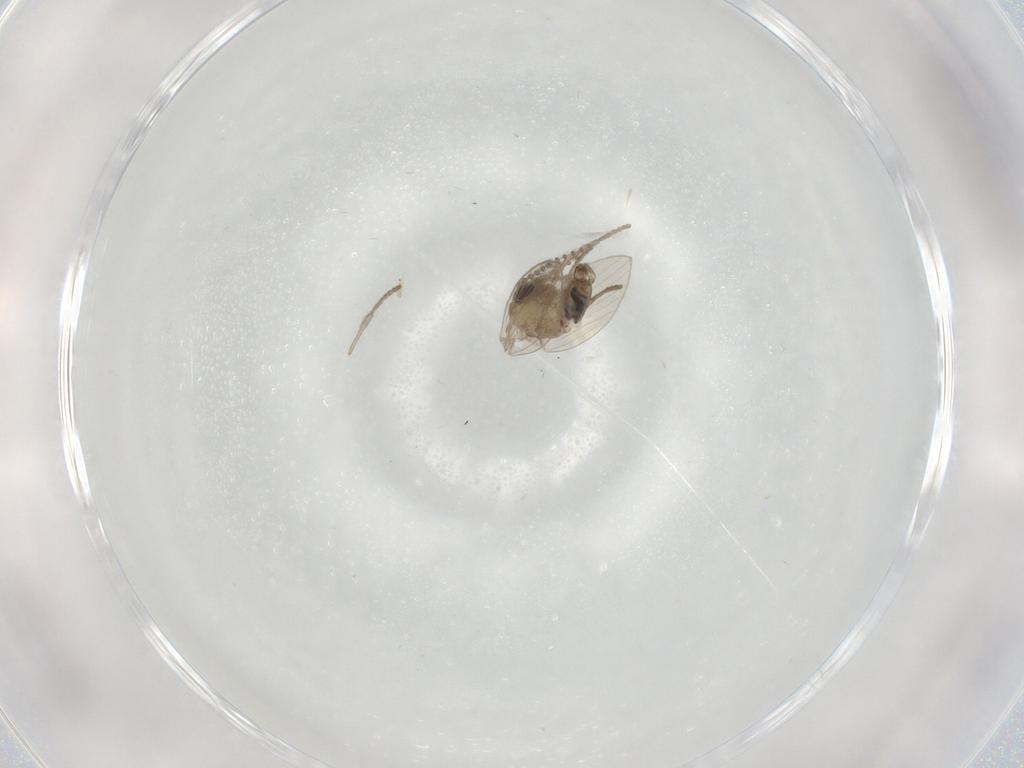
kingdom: Animalia
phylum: Arthropoda
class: Insecta
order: Diptera
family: Psychodidae
